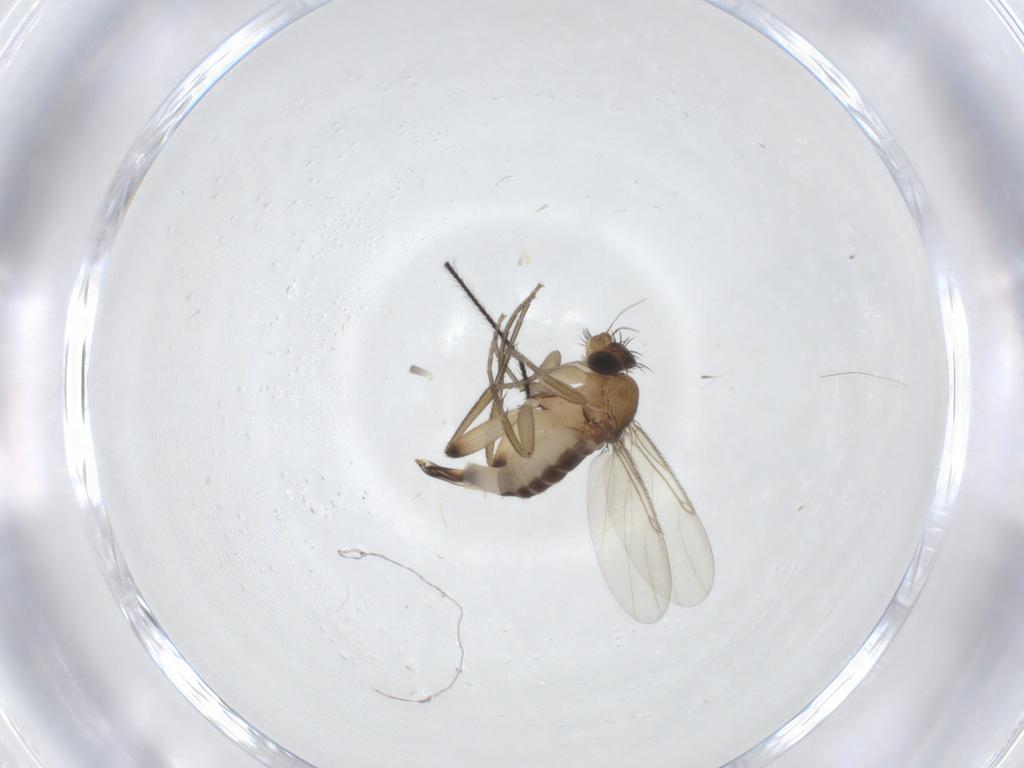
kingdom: Animalia
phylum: Arthropoda
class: Insecta
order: Diptera
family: Phoridae
